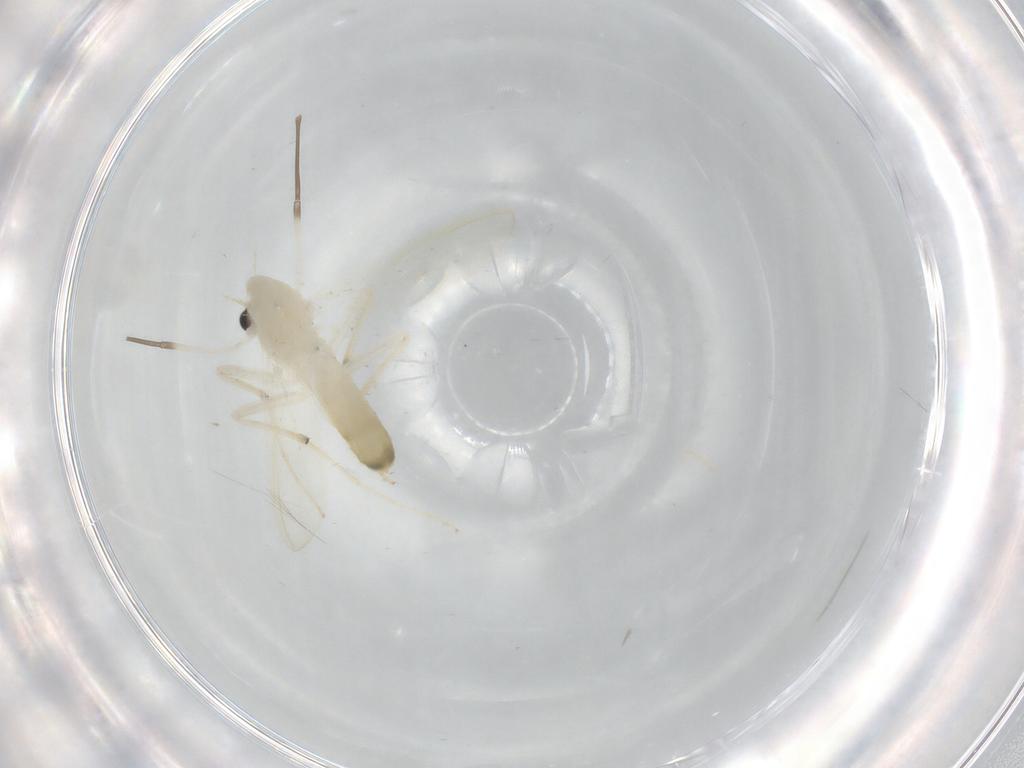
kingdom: Animalia
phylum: Arthropoda
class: Insecta
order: Diptera
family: Chironomidae
